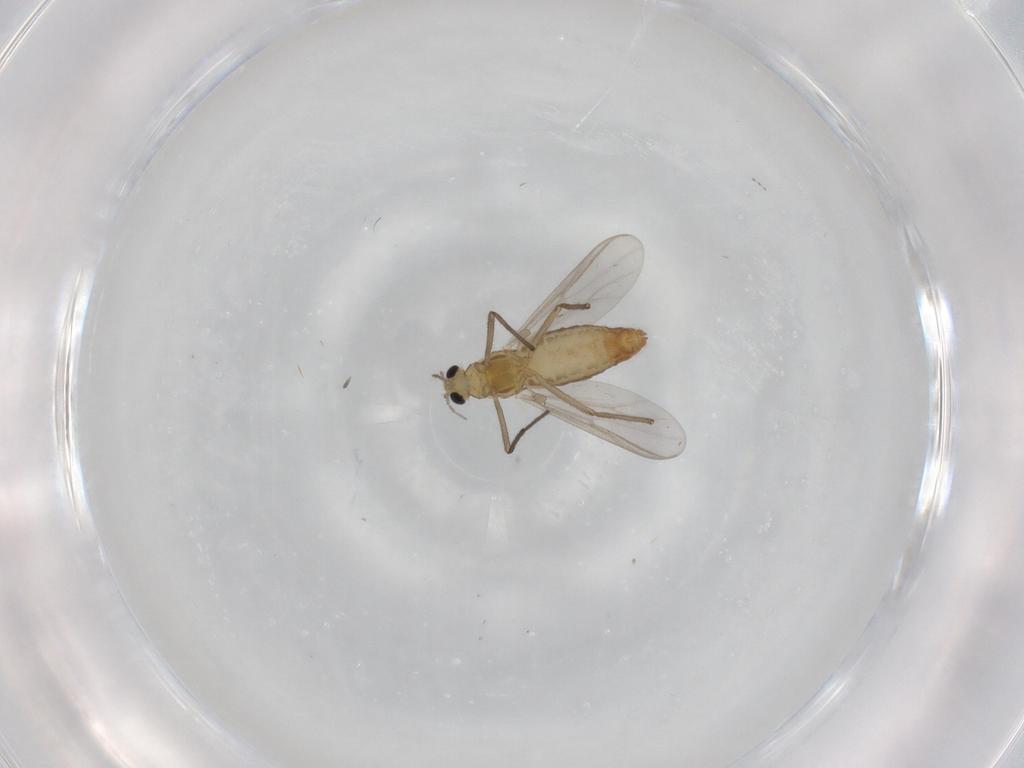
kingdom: Animalia
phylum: Arthropoda
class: Insecta
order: Diptera
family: Chironomidae
